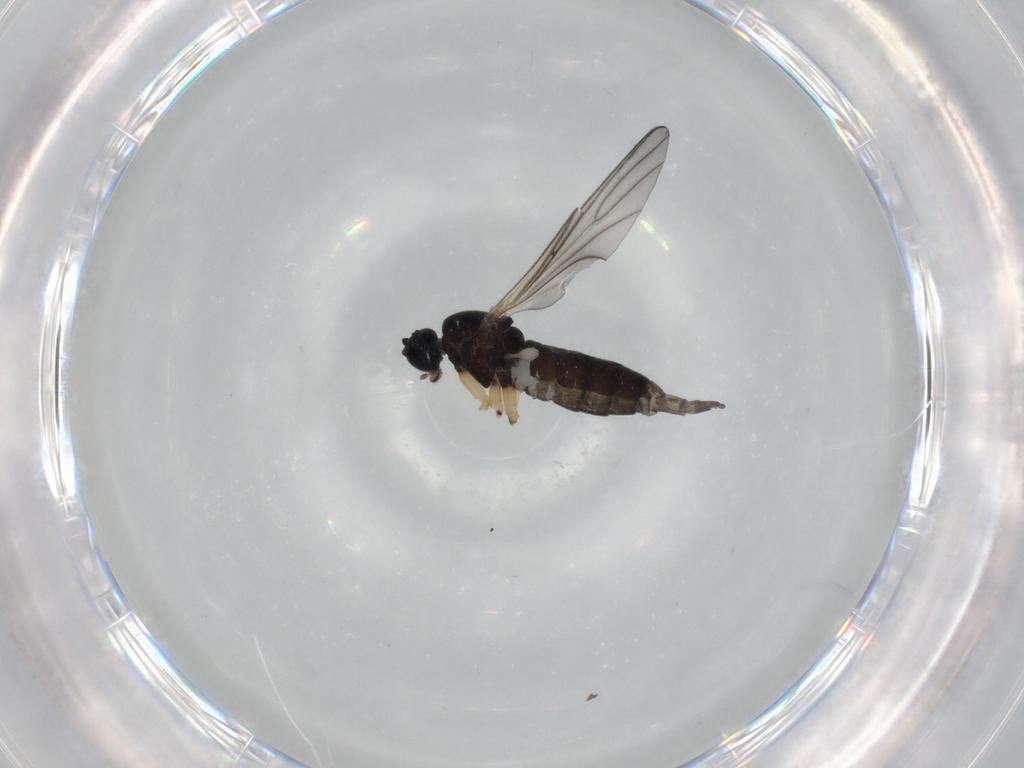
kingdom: Animalia
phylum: Arthropoda
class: Insecta
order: Diptera
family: Sciaridae
